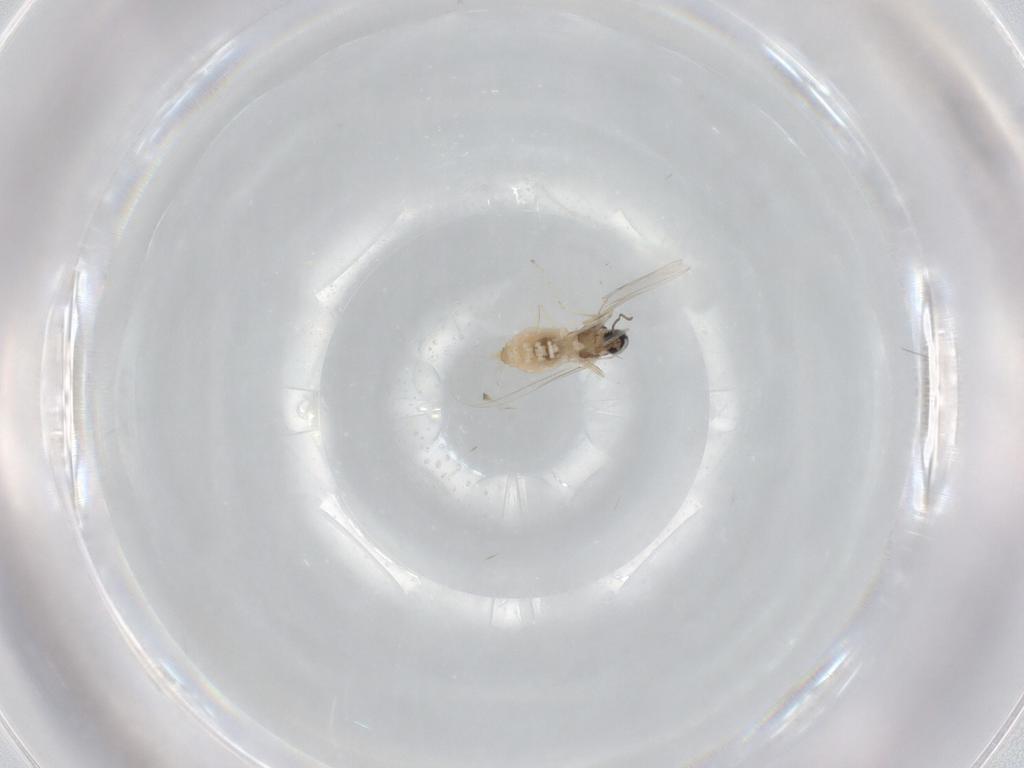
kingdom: Animalia
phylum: Arthropoda
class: Insecta
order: Diptera
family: Cecidomyiidae
